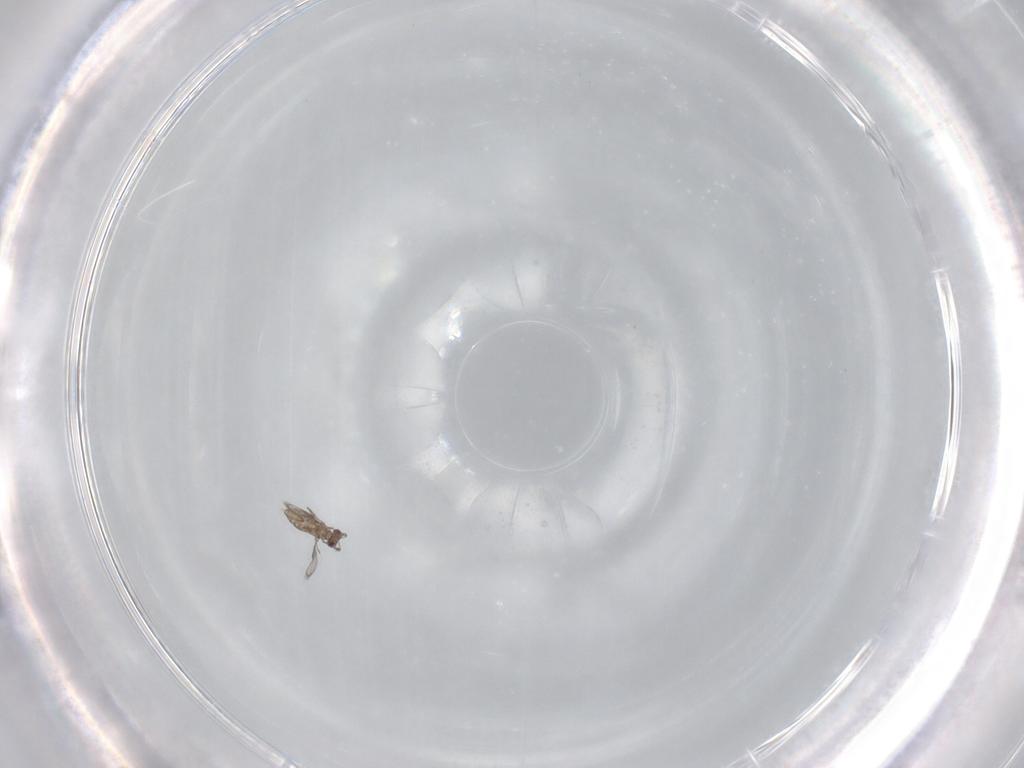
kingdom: Animalia
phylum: Arthropoda
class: Insecta
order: Hymenoptera
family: Trichogrammatidae
